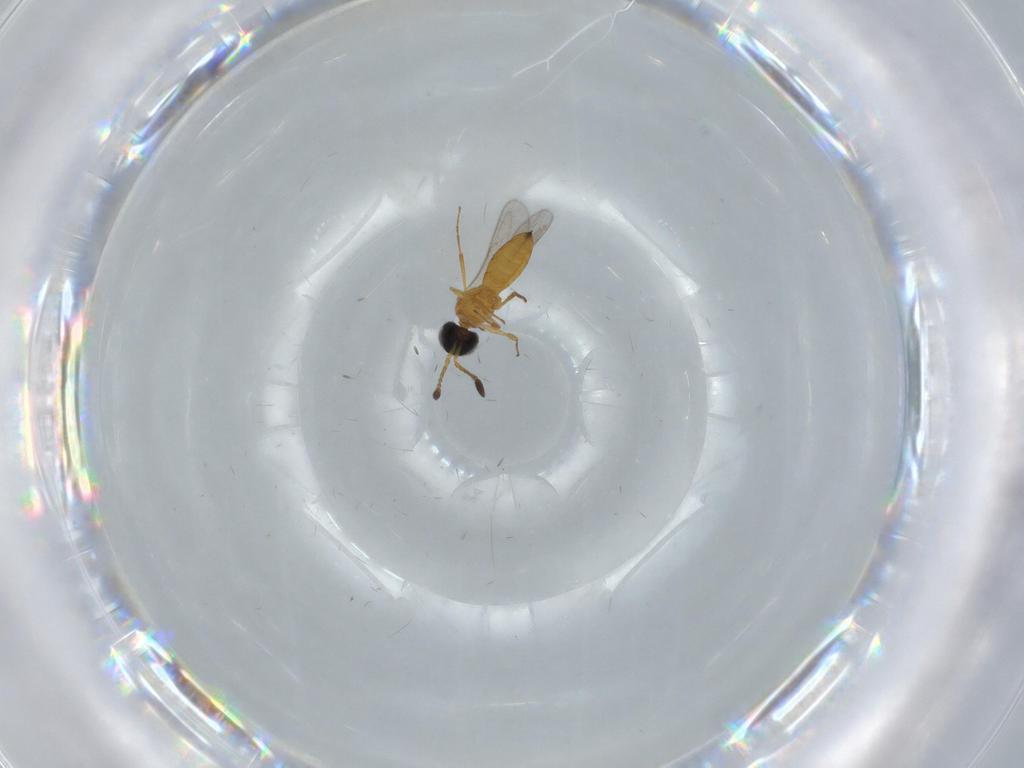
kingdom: Animalia
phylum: Arthropoda
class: Insecta
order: Hymenoptera
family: Scelionidae
